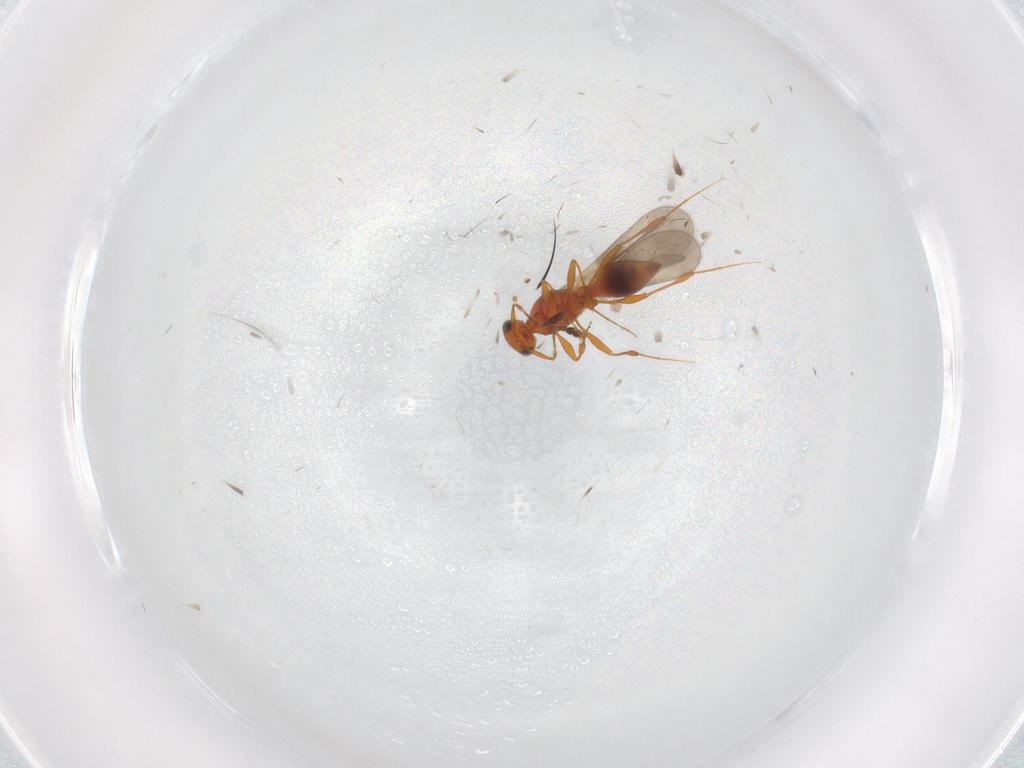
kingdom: Animalia
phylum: Arthropoda
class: Insecta
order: Hymenoptera
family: Platygastridae
